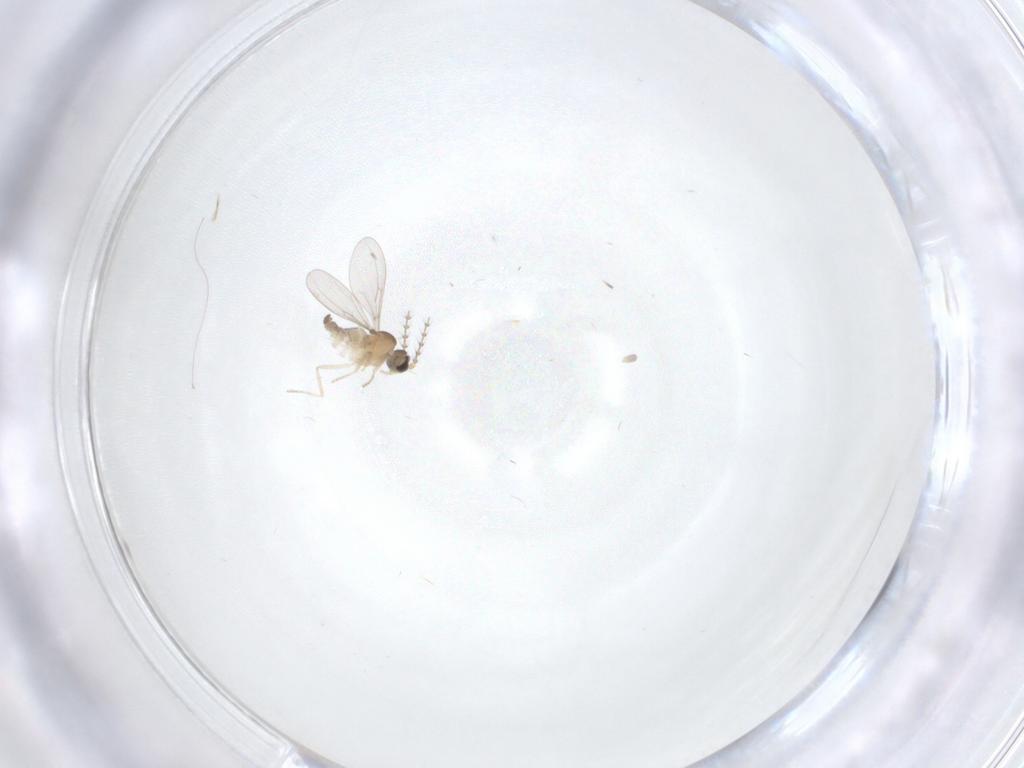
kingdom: Animalia
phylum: Arthropoda
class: Insecta
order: Diptera
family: Cecidomyiidae
